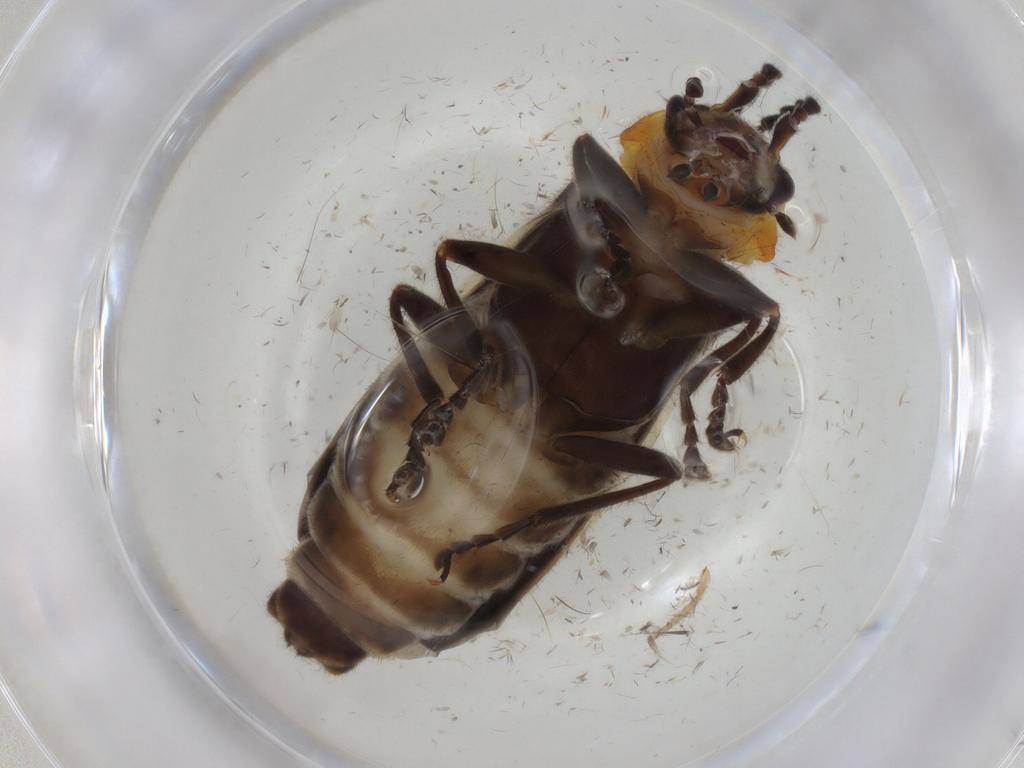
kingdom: Animalia
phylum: Arthropoda
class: Insecta
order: Coleoptera
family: Cantharidae
